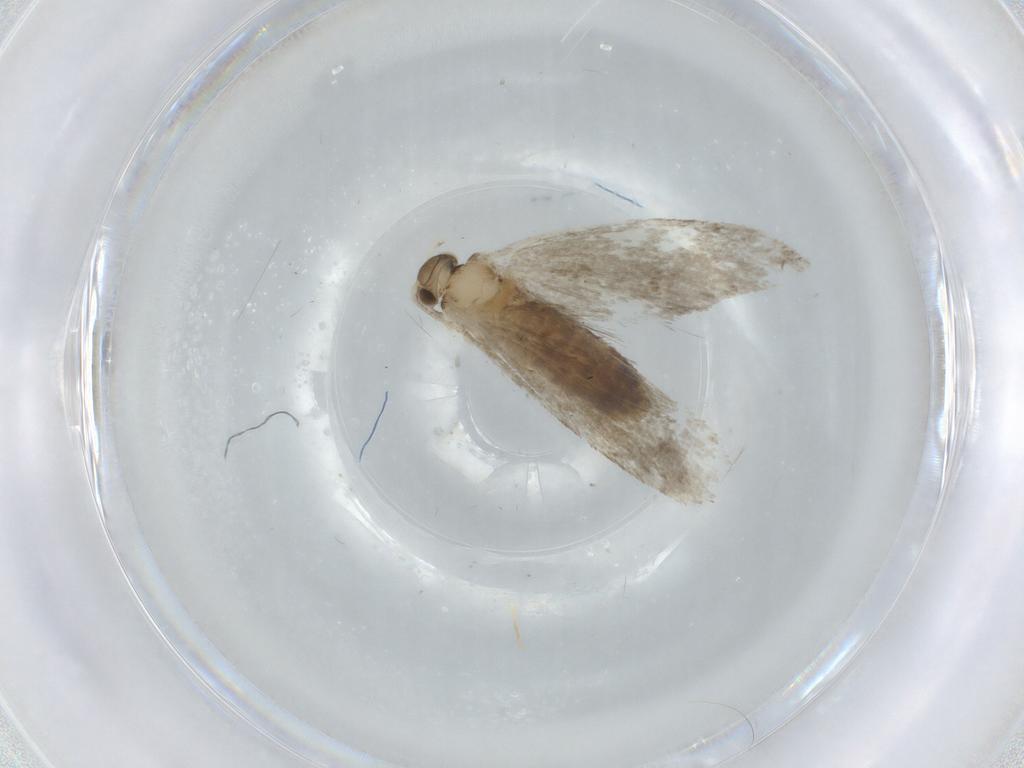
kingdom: Animalia
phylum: Arthropoda
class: Insecta
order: Lepidoptera
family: Tineidae
